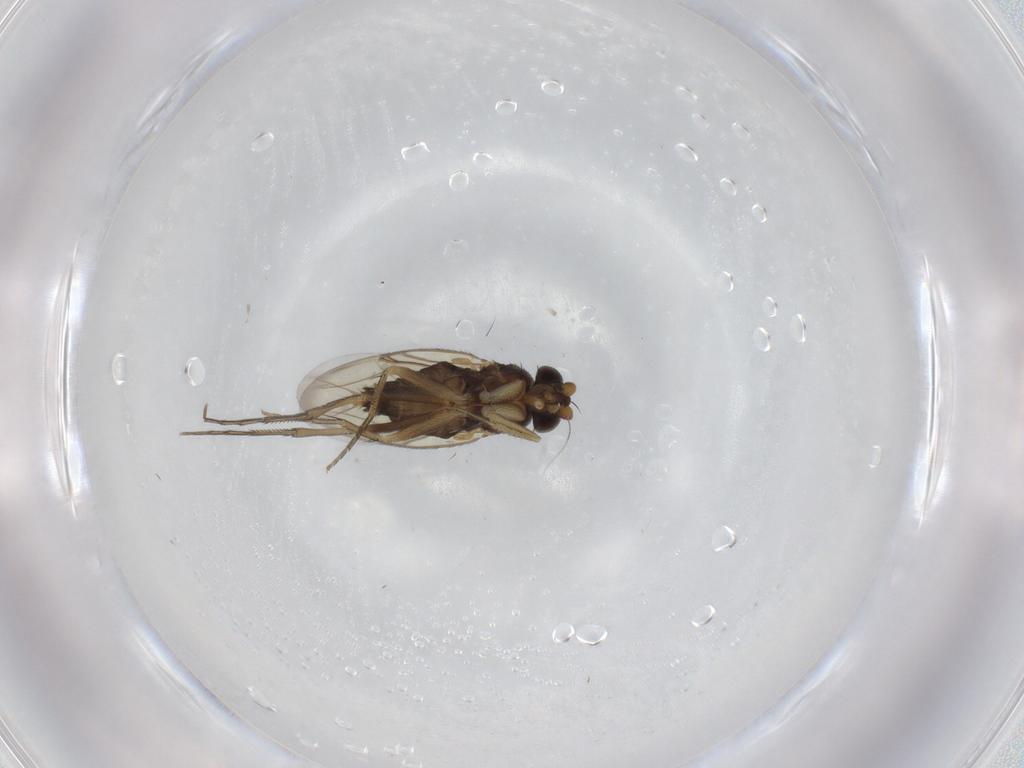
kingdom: Animalia
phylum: Arthropoda
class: Insecta
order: Diptera
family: Phoridae
